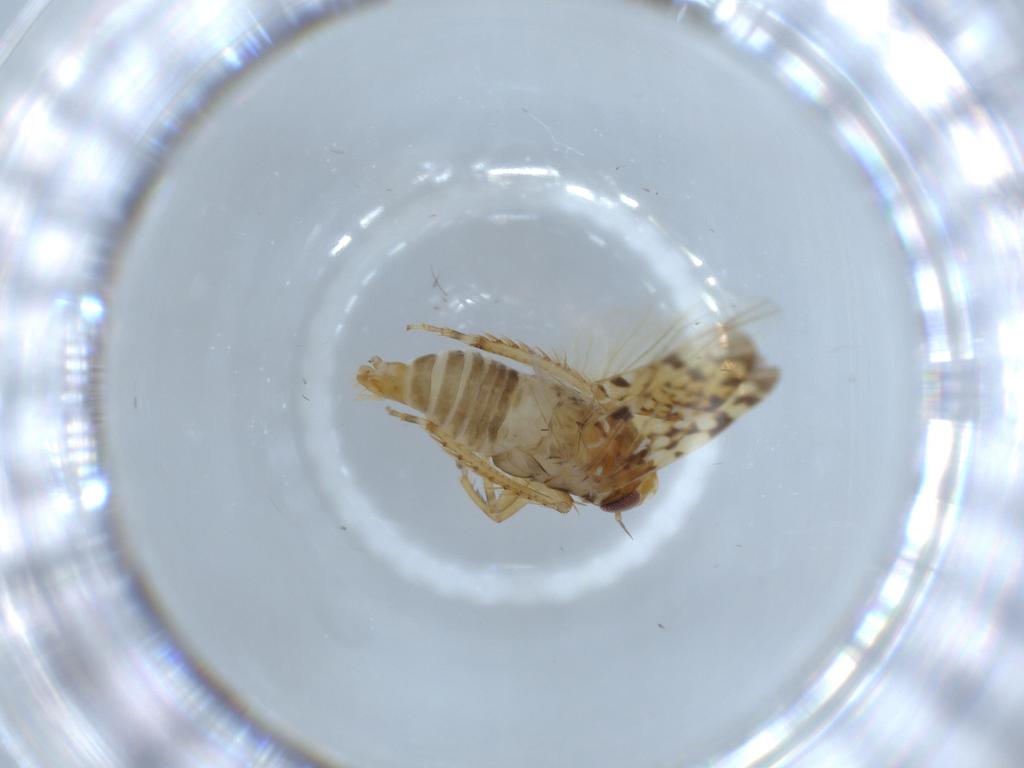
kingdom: Animalia
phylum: Arthropoda
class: Insecta
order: Hemiptera
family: Cicadellidae
